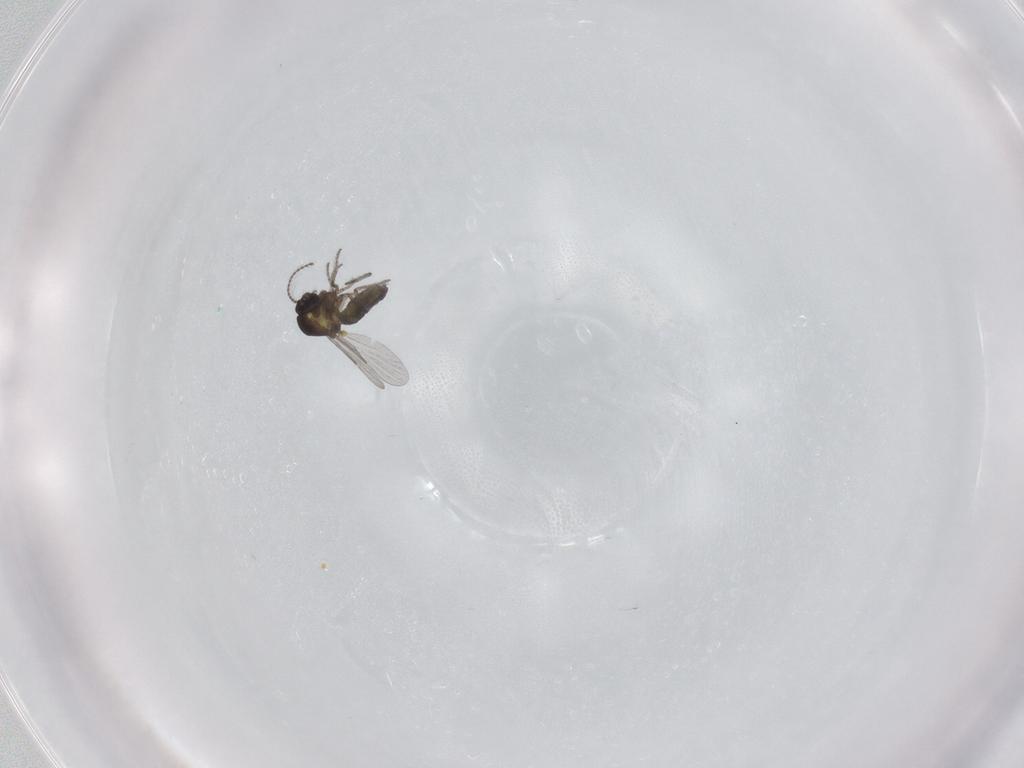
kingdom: Animalia
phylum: Arthropoda
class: Insecta
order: Diptera
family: Ceratopogonidae
